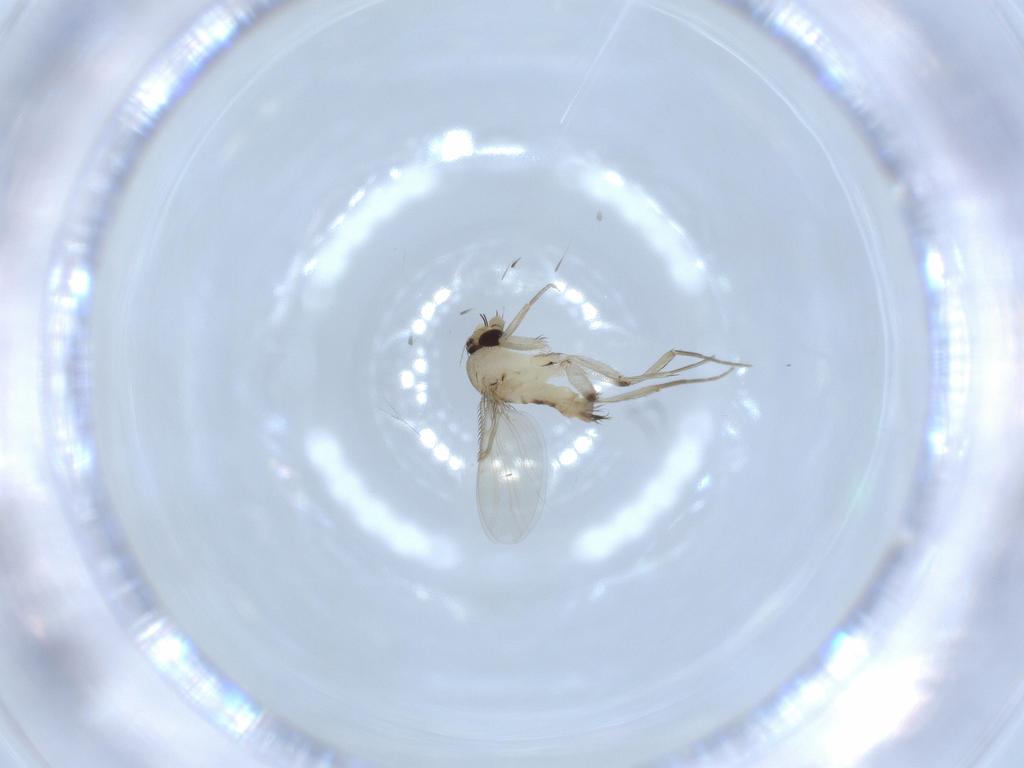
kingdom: Animalia
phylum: Arthropoda
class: Insecta
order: Diptera
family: Phoridae
